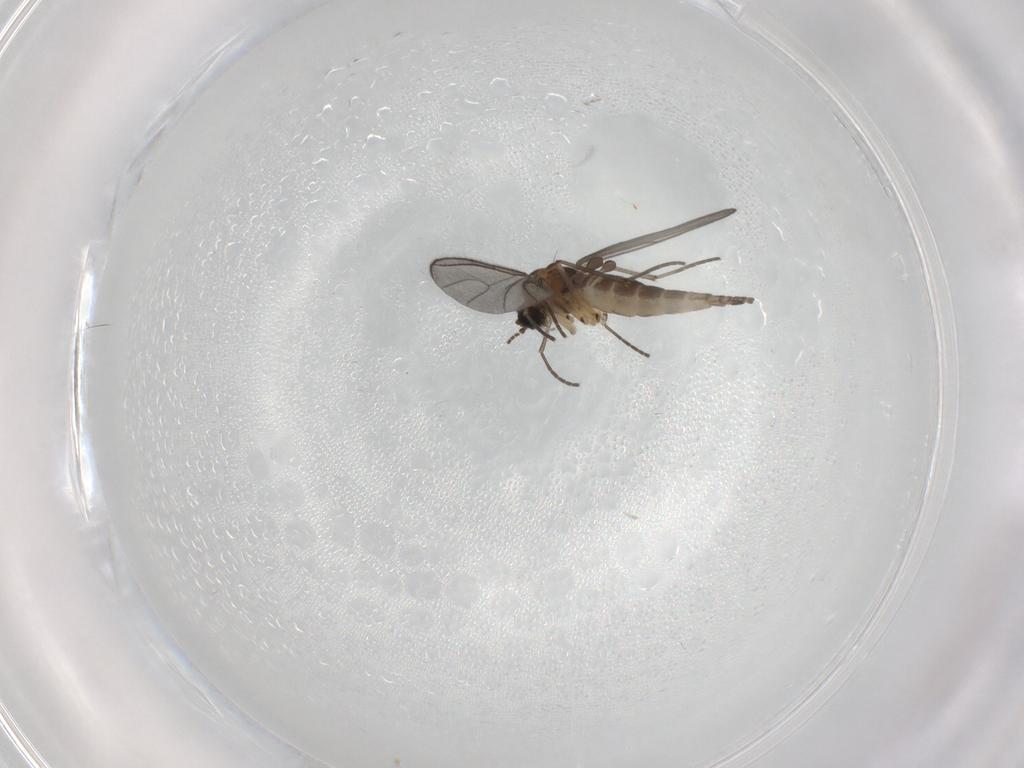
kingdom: Animalia
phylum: Arthropoda
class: Insecta
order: Diptera
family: Sciaridae
